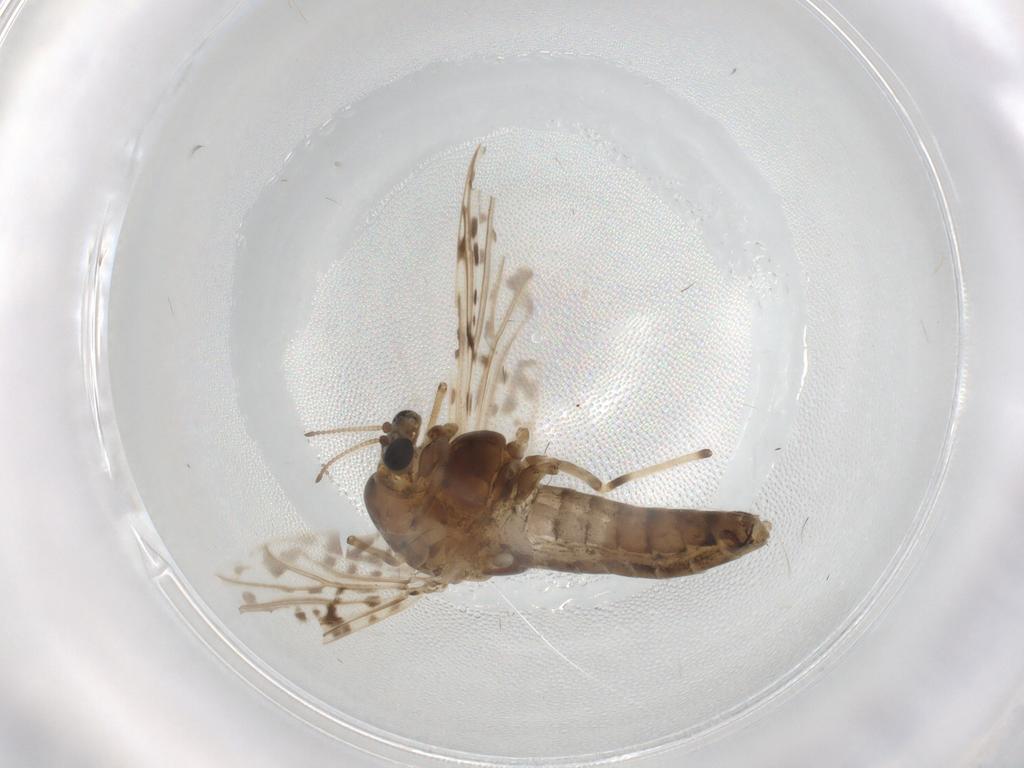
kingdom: Animalia
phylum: Arthropoda
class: Insecta
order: Diptera
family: Chironomidae
